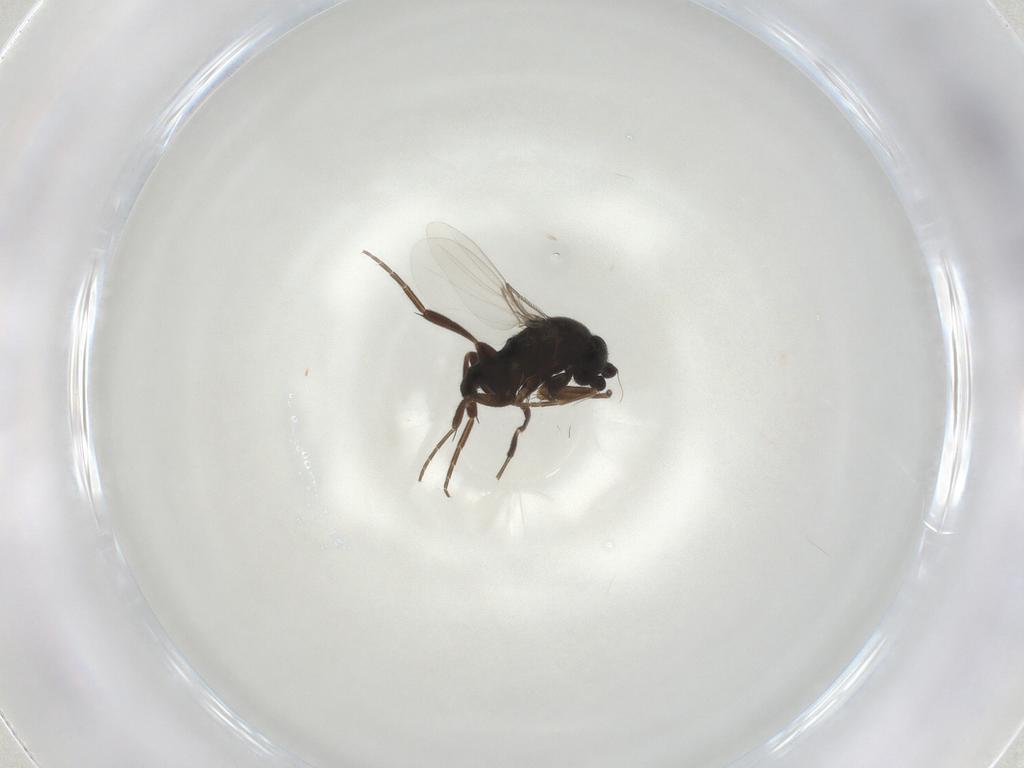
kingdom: Animalia
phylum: Arthropoda
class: Insecta
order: Diptera
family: Phoridae
